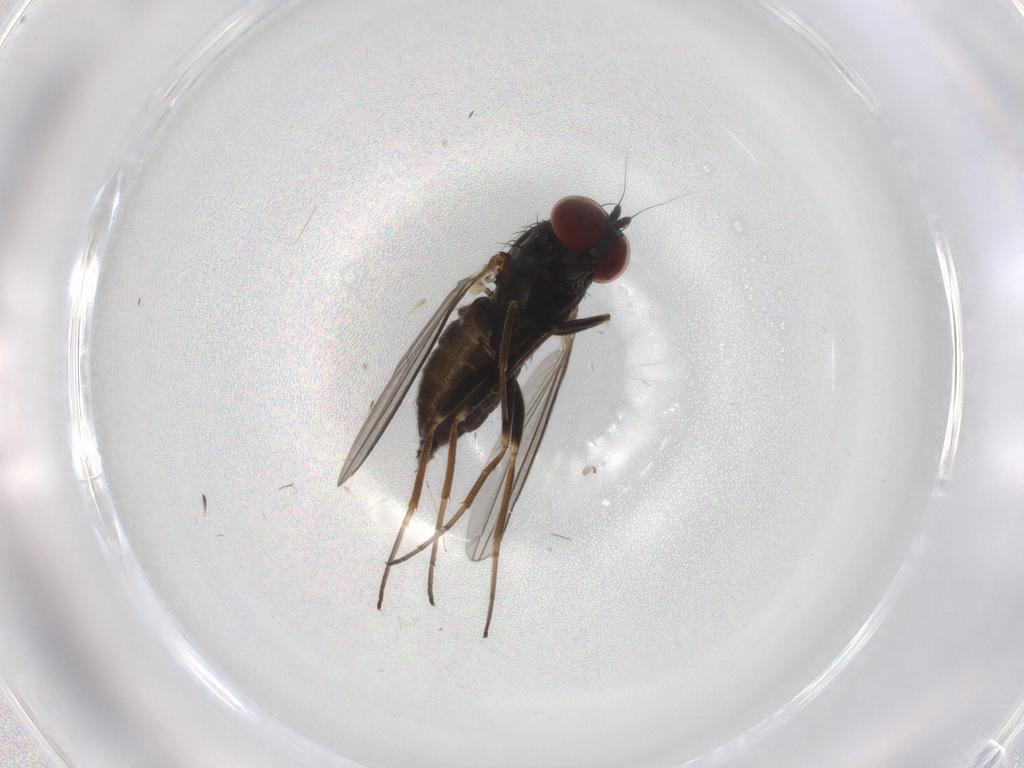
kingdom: Animalia
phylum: Arthropoda
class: Insecta
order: Diptera
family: Dolichopodidae
